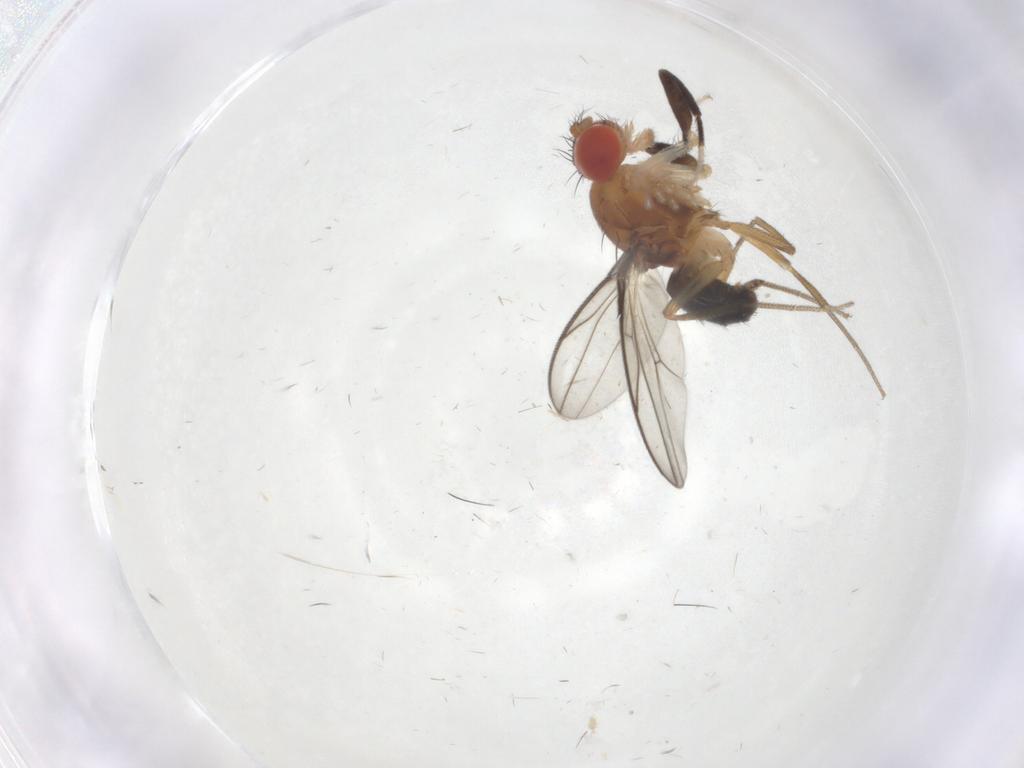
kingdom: Animalia
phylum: Arthropoda
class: Insecta
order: Diptera
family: Drosophilidae
